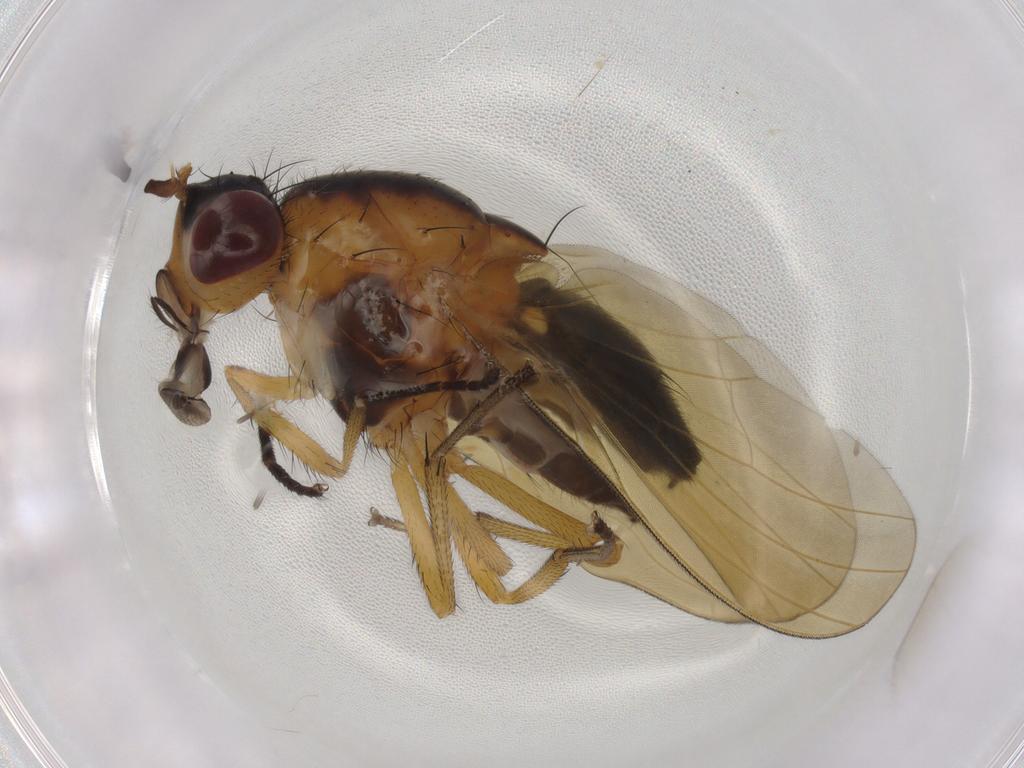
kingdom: Animalia
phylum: Arthropoda
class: Insecta
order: Diptera
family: Lauxaniidae
